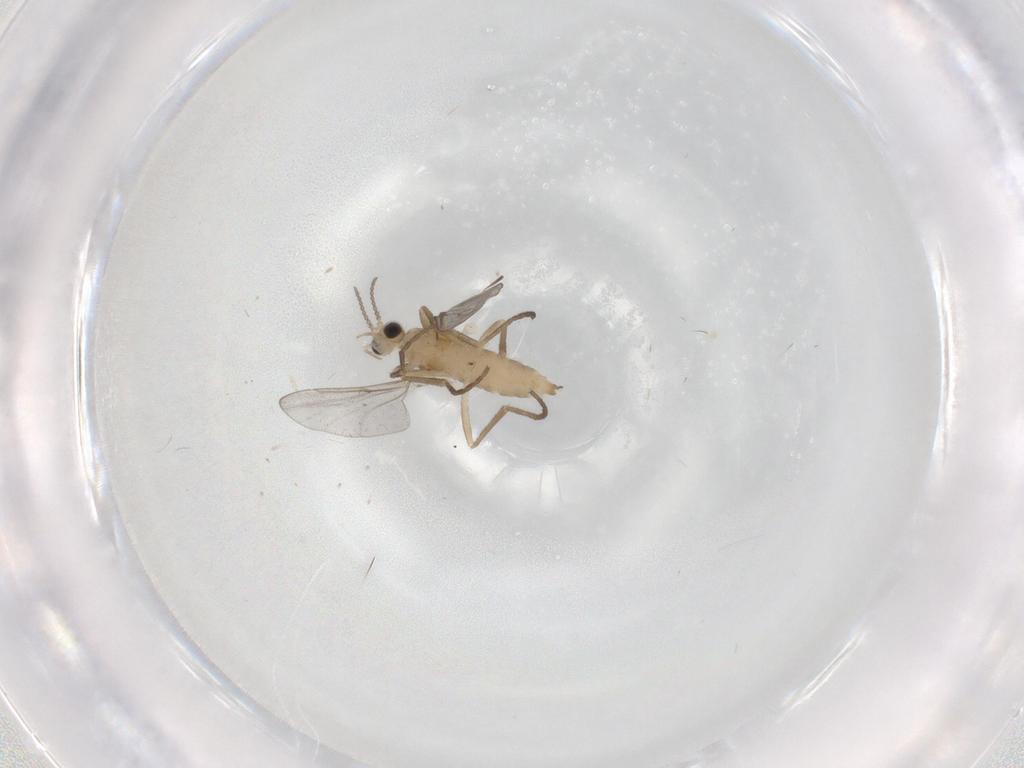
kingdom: Animalia
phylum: Arthropoda
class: Insecta
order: Diptera
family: Cecidomyiidae
